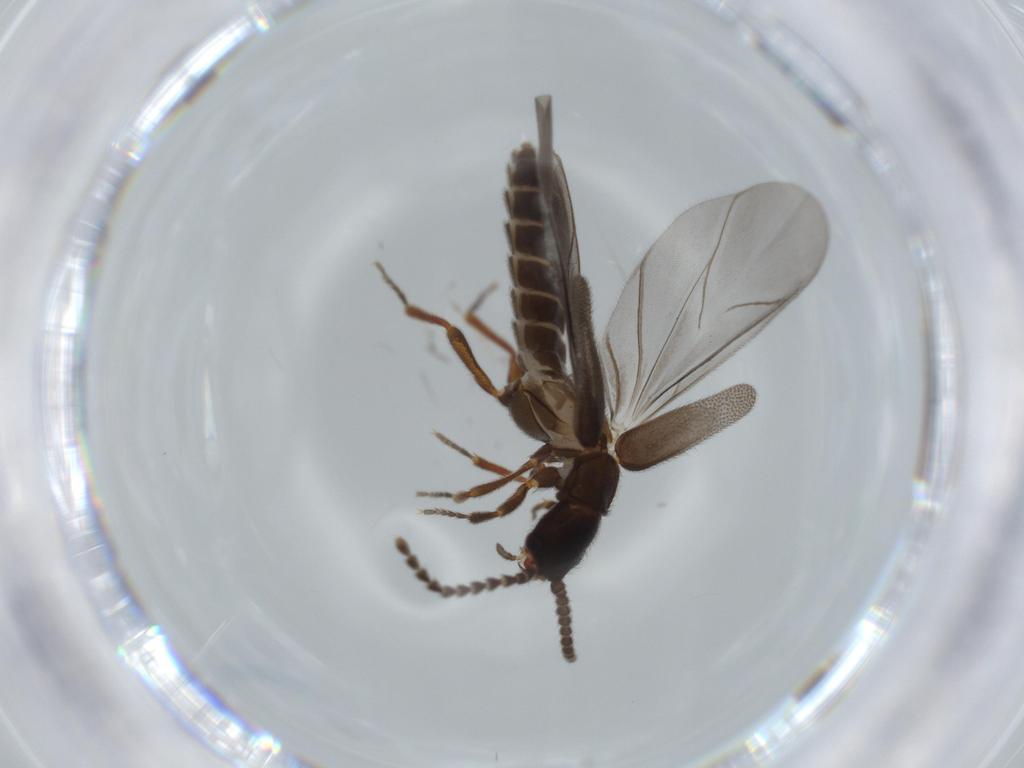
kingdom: Animalia
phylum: Arthropoda
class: Insecta
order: Coleoptera
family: Omethidae
